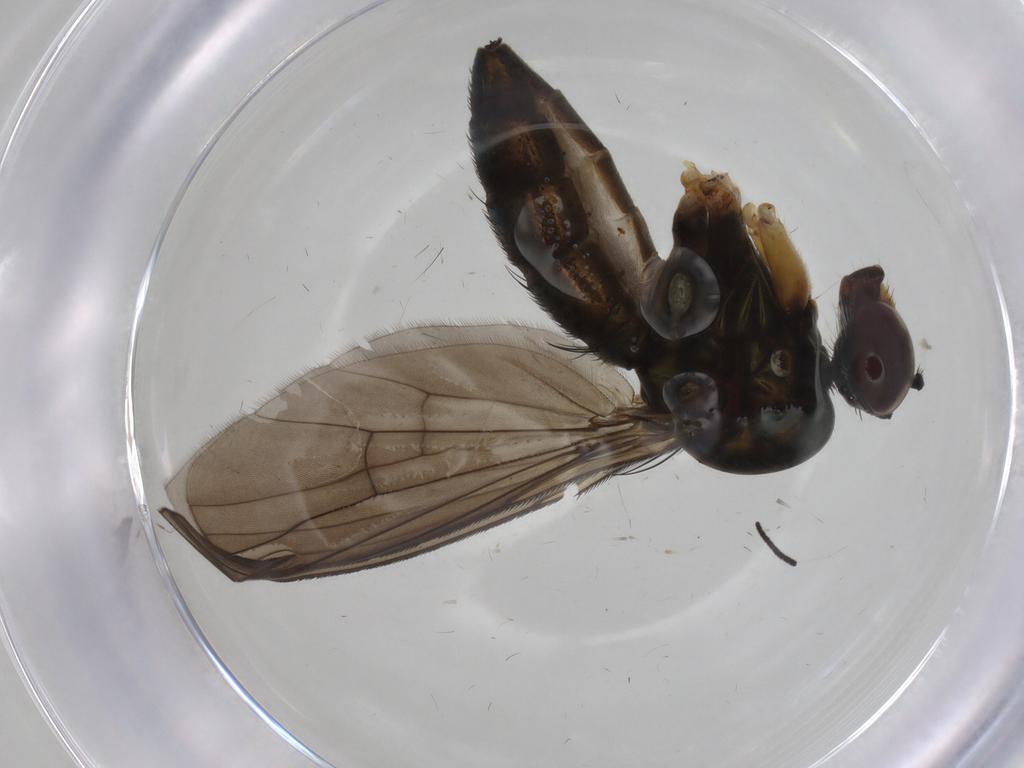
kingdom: Animalia
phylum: Arthropoda
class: Insecta
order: Diptera
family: Dolichopodidae
